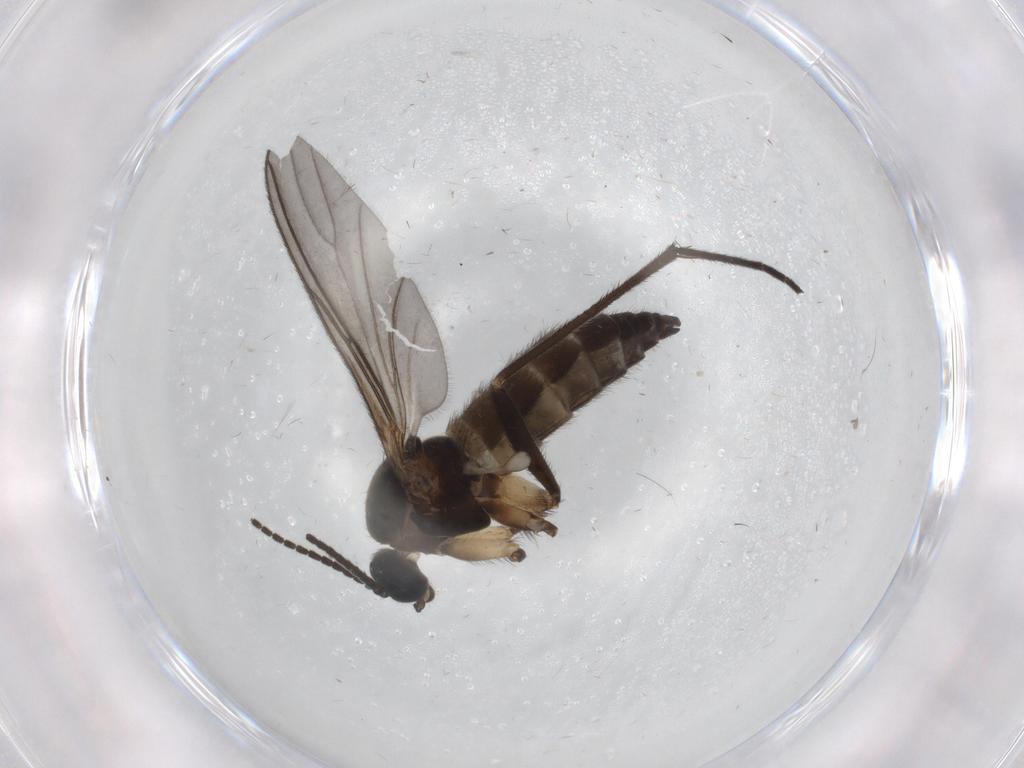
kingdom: Animalia
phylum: Arthropoda
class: Insecta
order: Diptera
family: Sciaridae
